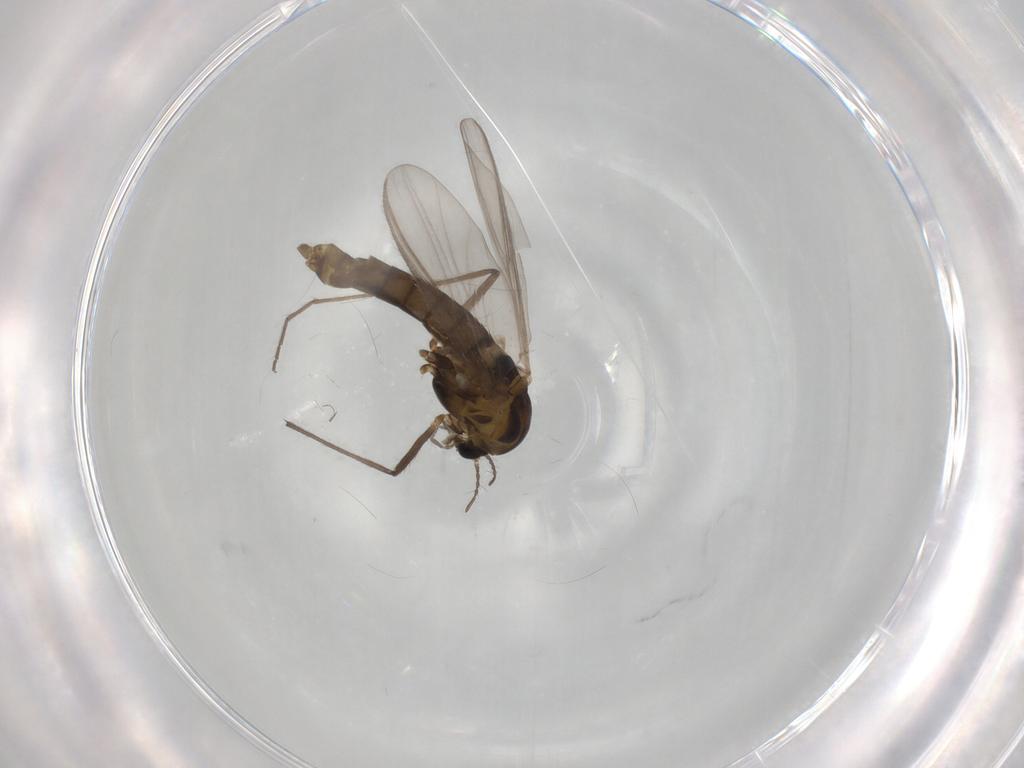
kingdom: Animalia
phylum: Arthropoda
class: Insecta
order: Diptera
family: Chironomidae
